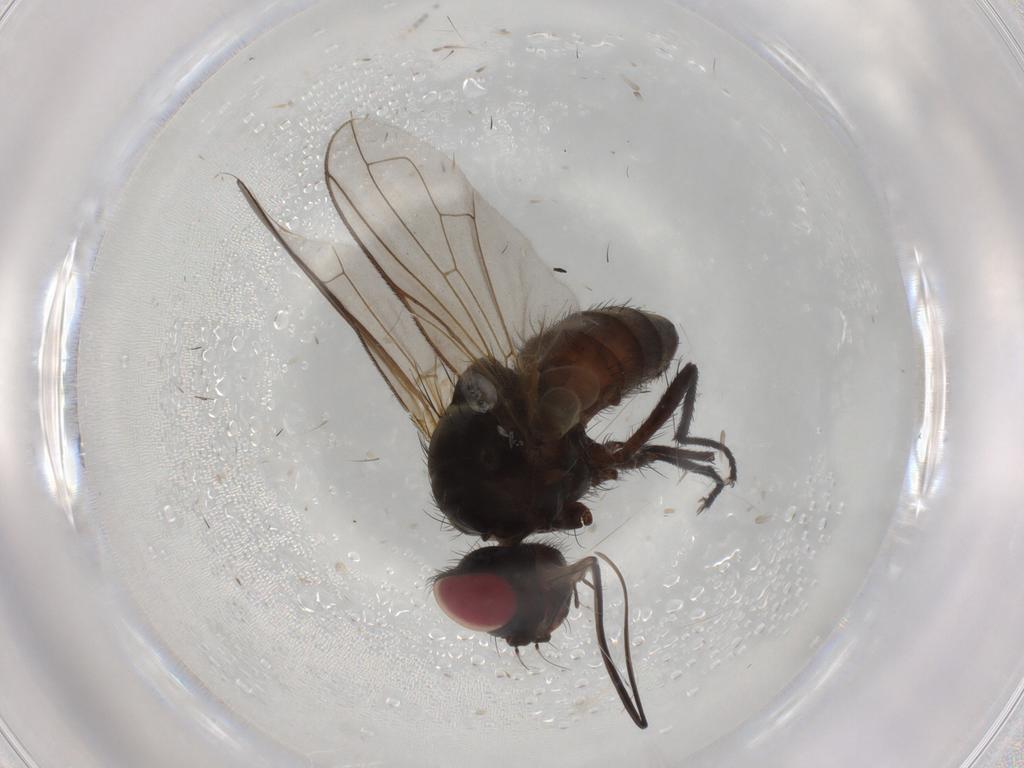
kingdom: Animalia
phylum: Arthropoda
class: Insecta
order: Diptera
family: Tachinidae
